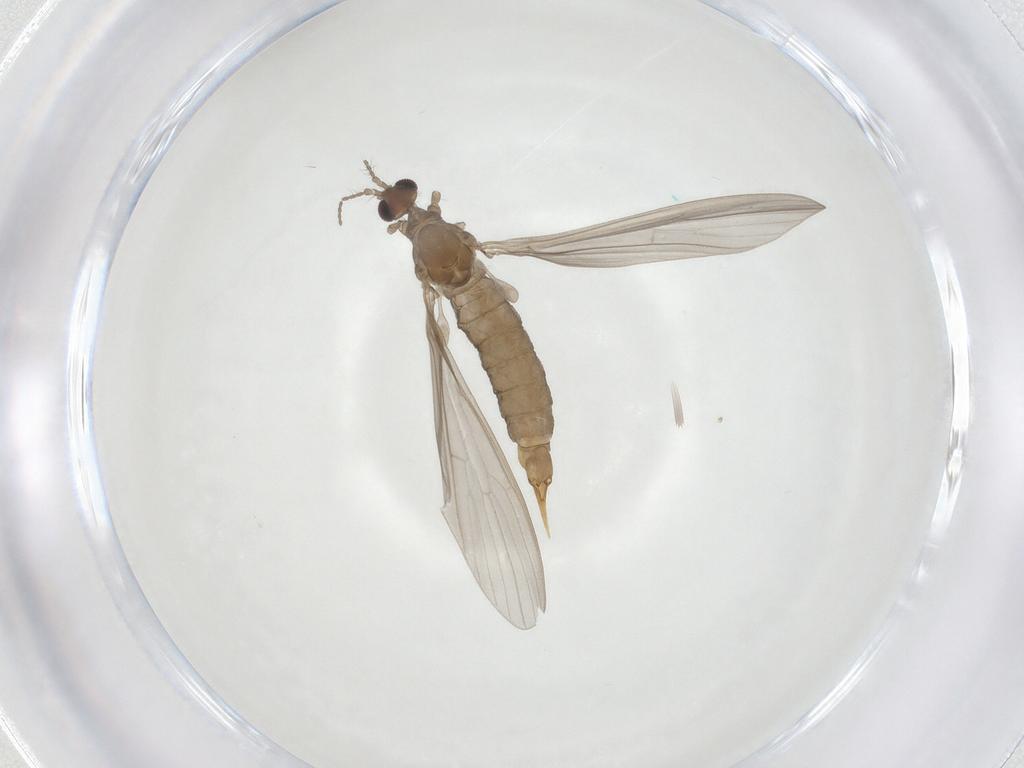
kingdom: Animalia
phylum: Arthropoda
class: Insecta
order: Diptera
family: Limoniidae
